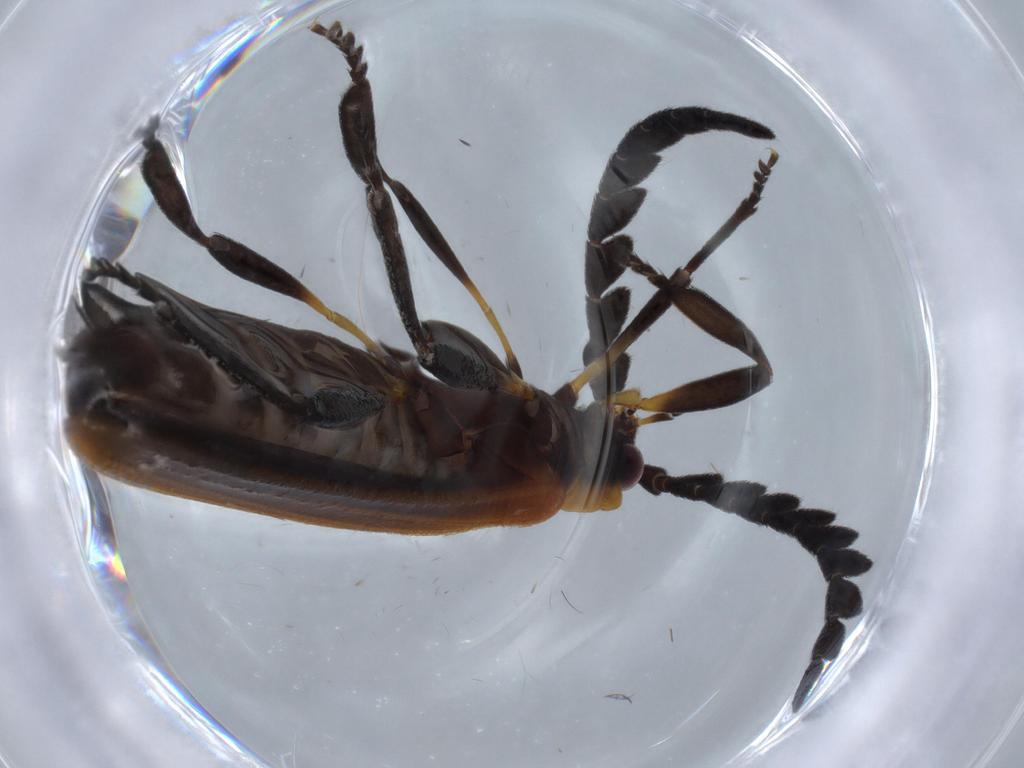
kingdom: Animalia
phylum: Arthropoda
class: Insecta
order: Coleoptera
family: Lycidae
